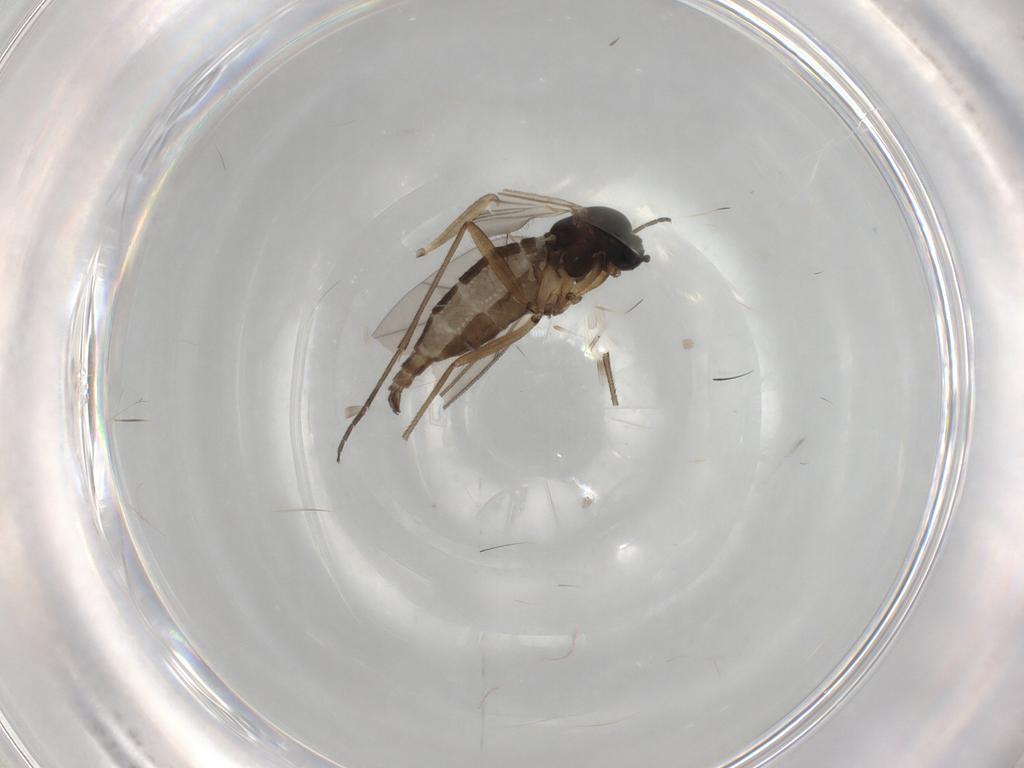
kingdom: Animalia
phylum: Arthropoda
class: Insecta
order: Diptera
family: Sciaridae
